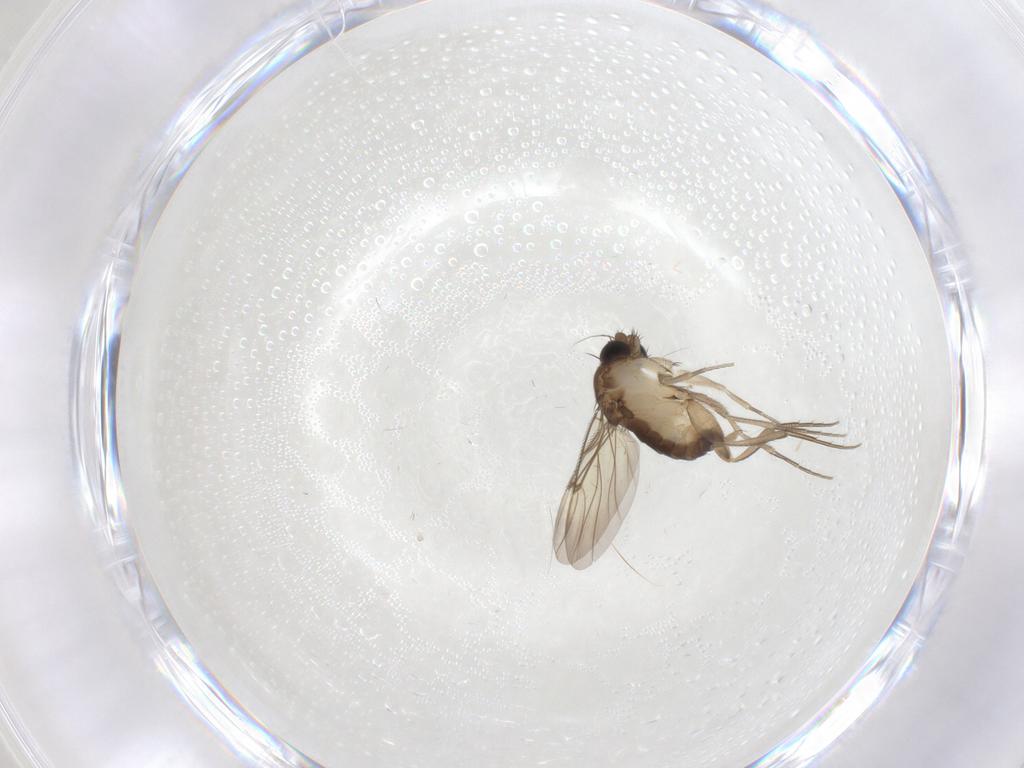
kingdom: Animalia
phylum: Arthropoda
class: Insecta
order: Diptera
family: Phoridae
